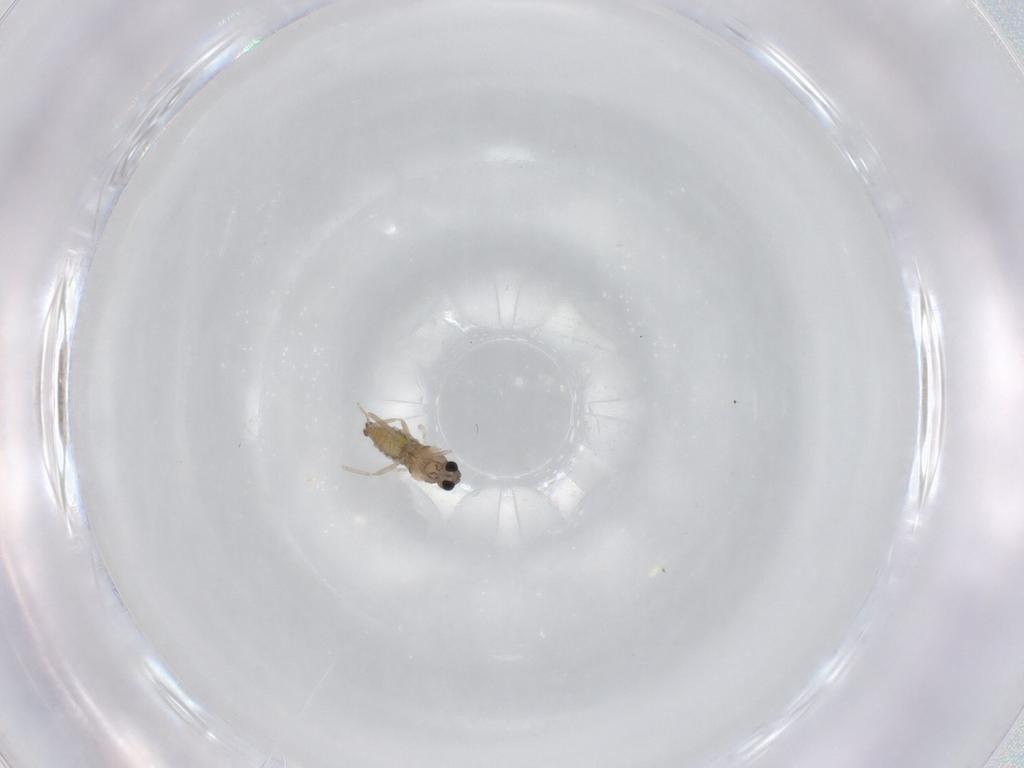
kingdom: Animalia
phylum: Arthropoda
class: Insecta
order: Diptera
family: Cecidomyiidae
